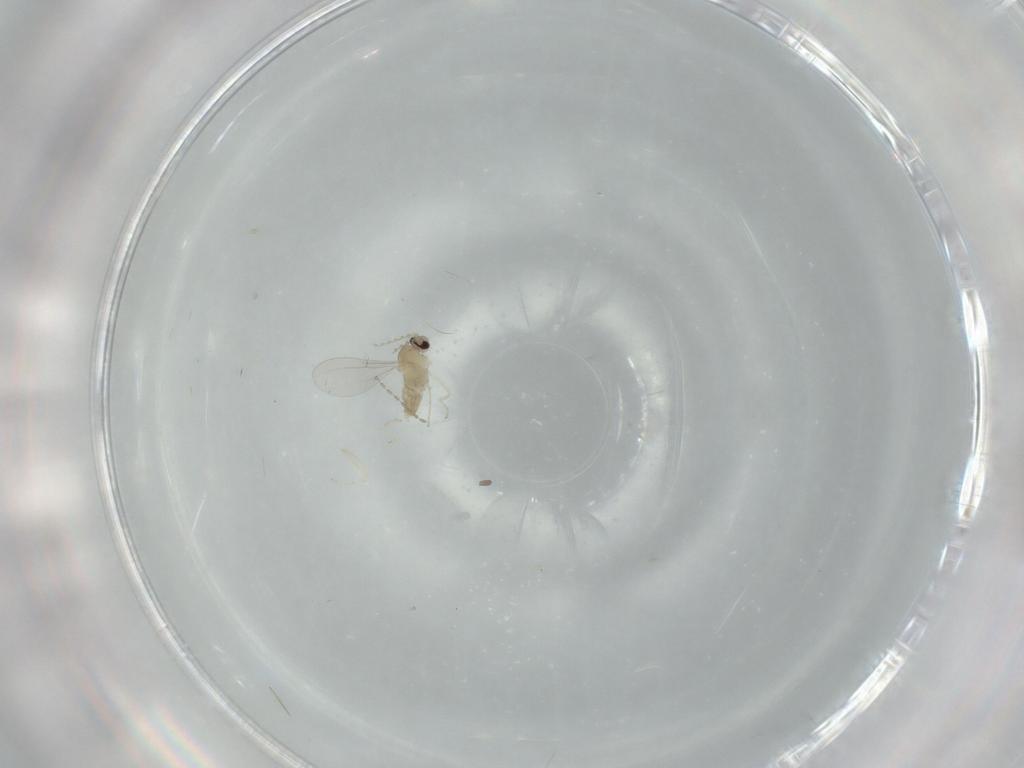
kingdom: Animalia
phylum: Arthropoda
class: Insecta
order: Diptera
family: Cecidomyiidae
